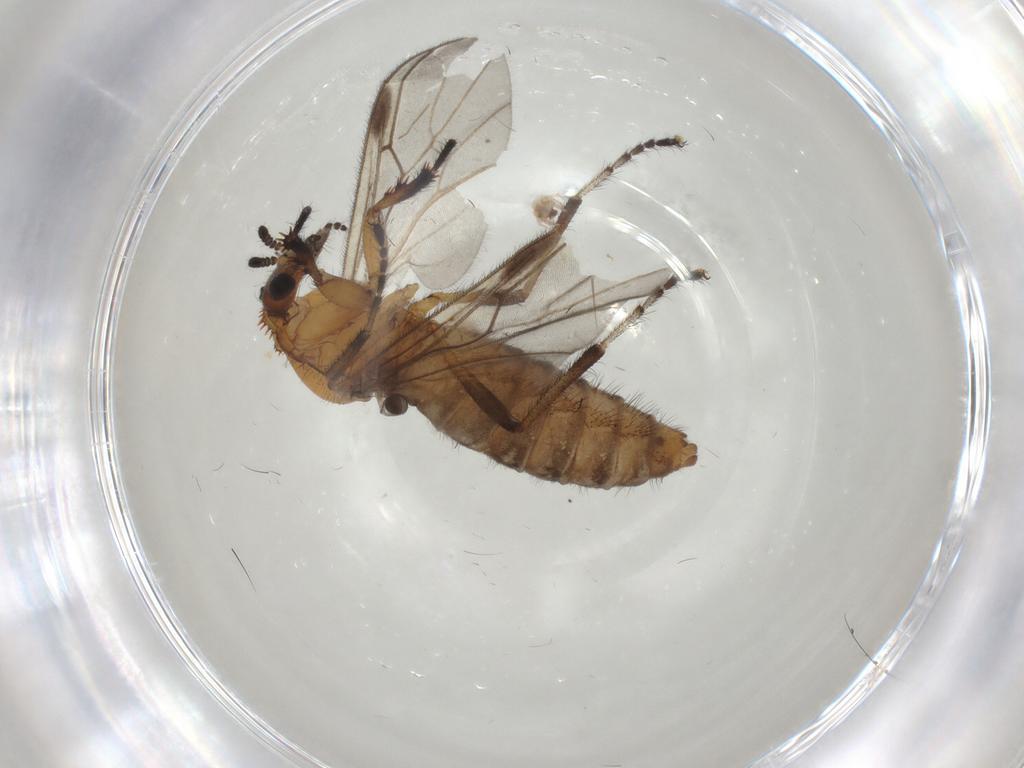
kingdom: Animalia
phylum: Arthropoda
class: Insecta
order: Diptera
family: Bibionidae
